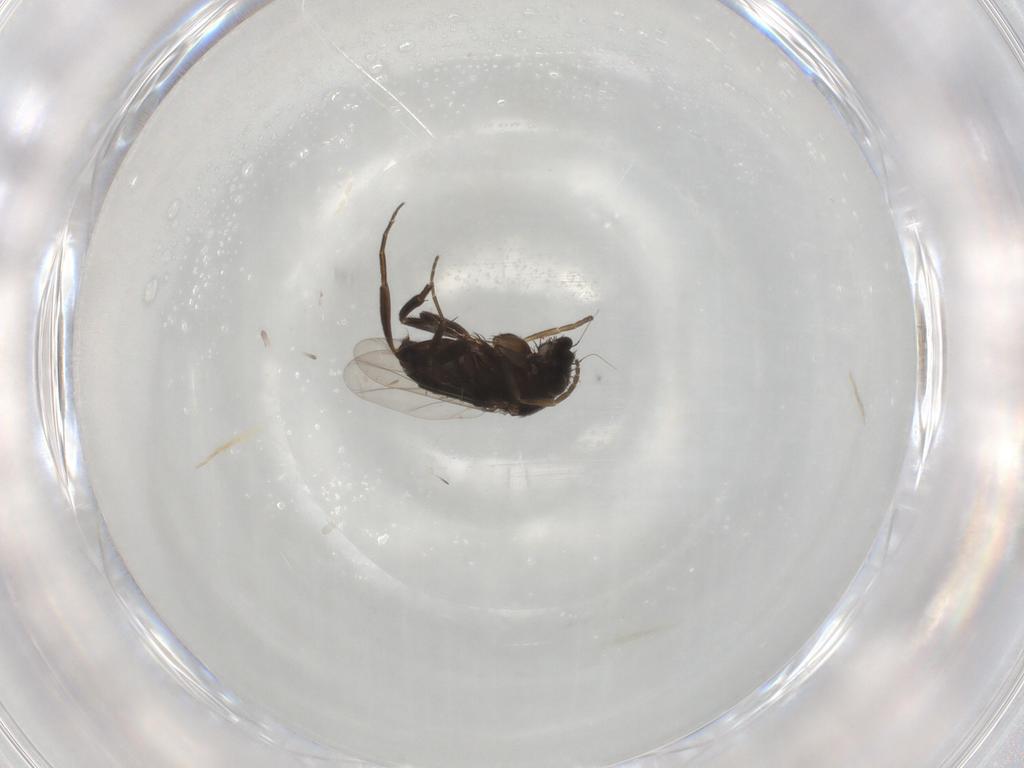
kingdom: Animalia
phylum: Arthropoda
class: Insecta
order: Diptera
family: Phoridae
